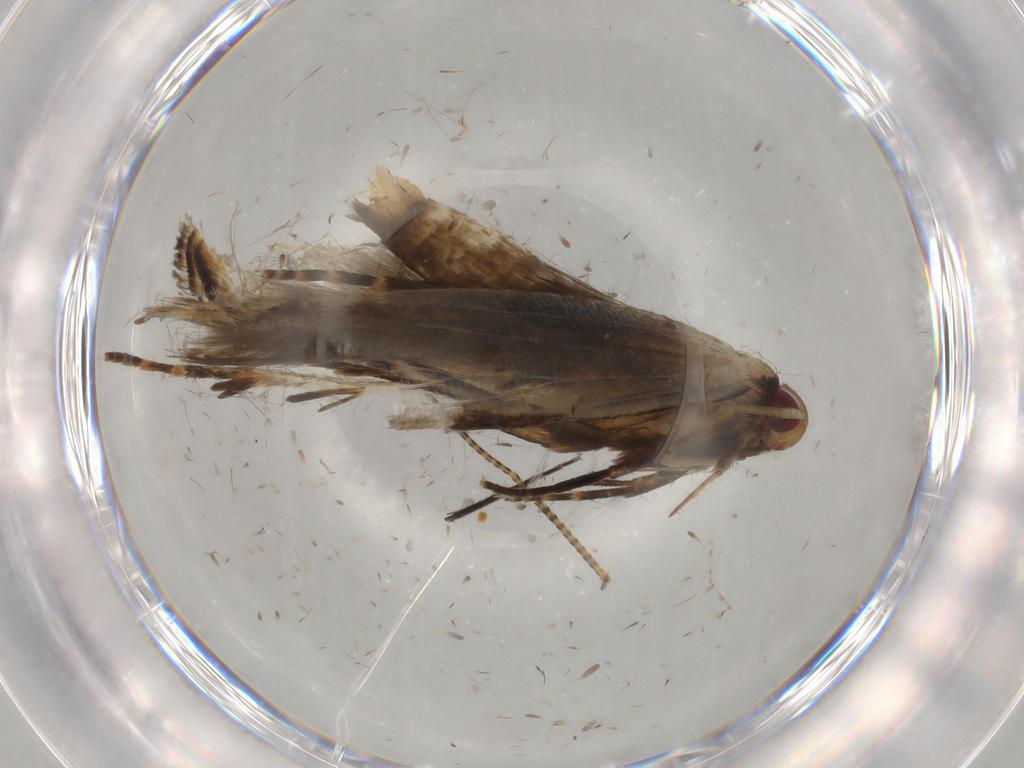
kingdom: Animalia
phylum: Arthropoda
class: Insecta
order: Lepidoptera
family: Gelechiidae
